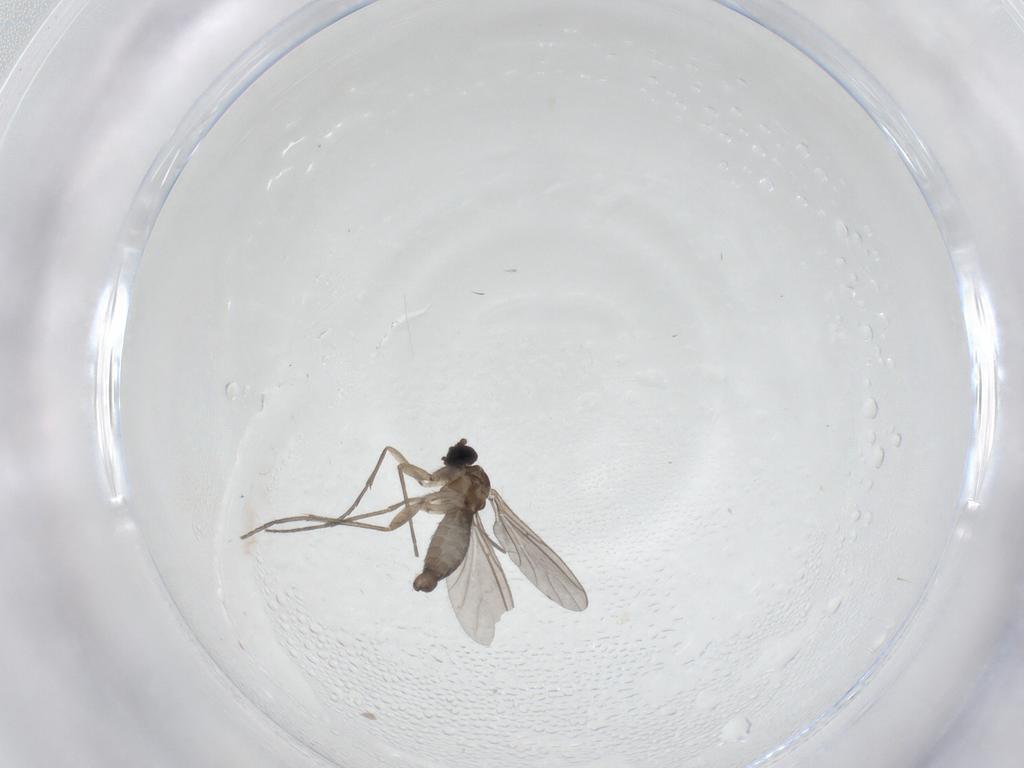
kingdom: Animalia
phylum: Arthropoda
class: Insecta
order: Diptera
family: Sciaridae
